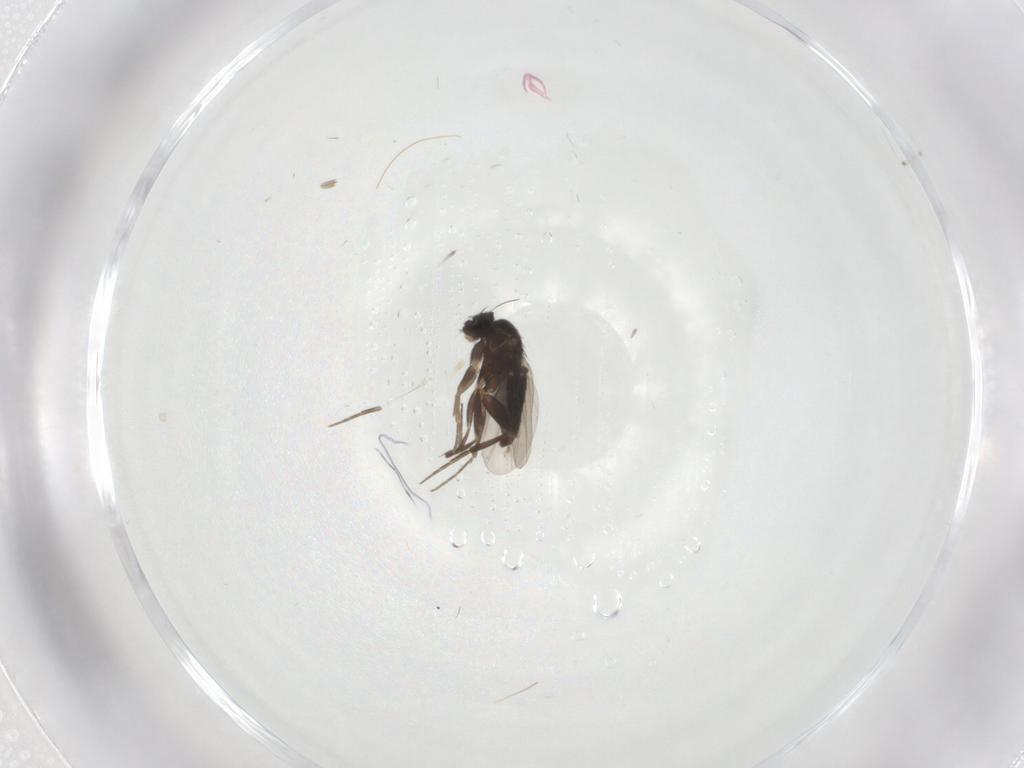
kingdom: Animalia
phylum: Arthropoda
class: Insecta
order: Diptera
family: Phoridae
